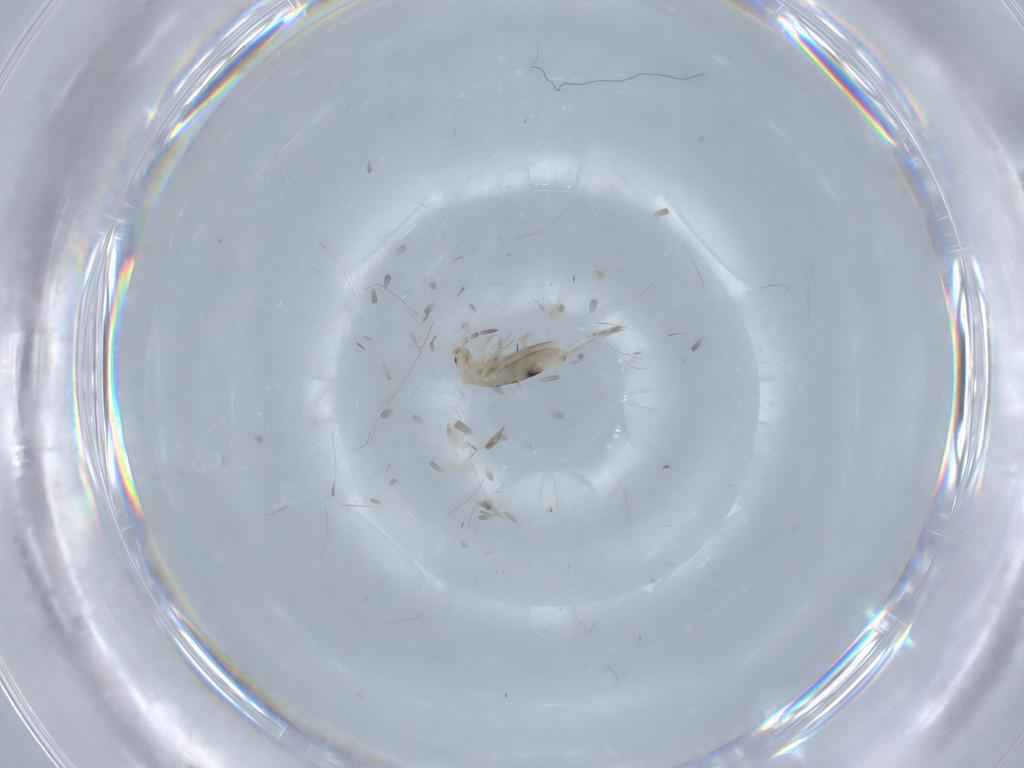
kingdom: Animalia
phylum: Arthropoda
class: Collembola
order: Entomobryomorpha
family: Entomobryidae
